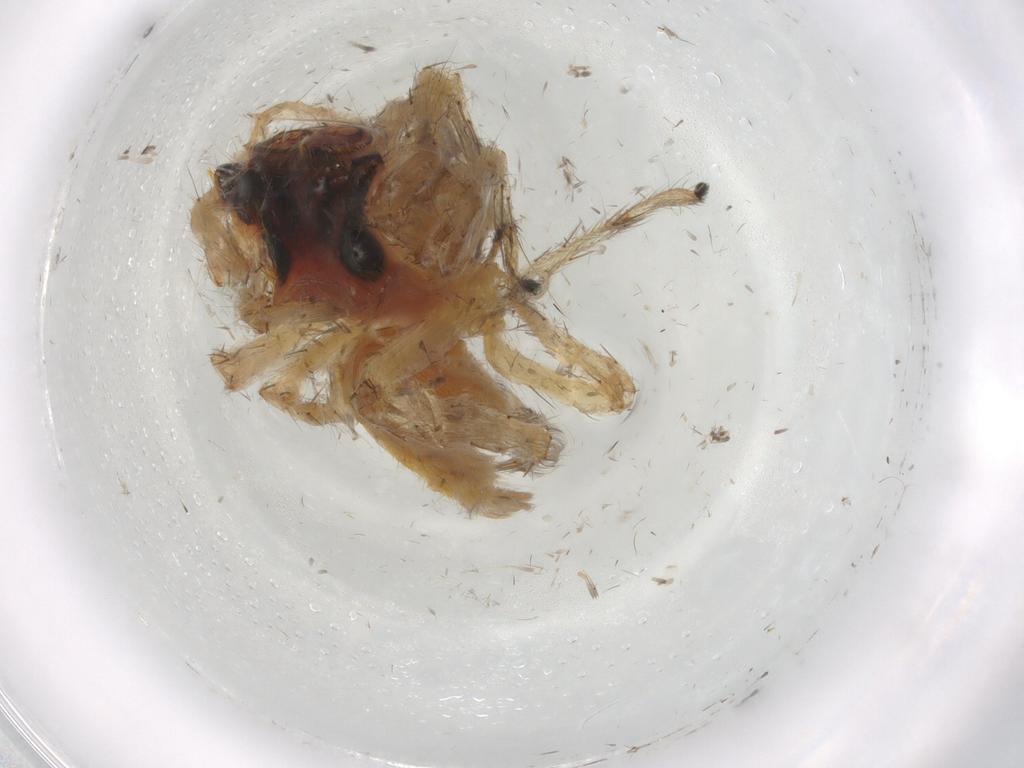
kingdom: Animalia
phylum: Arthropoda
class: Arachnida
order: Araneae
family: Salticidae
